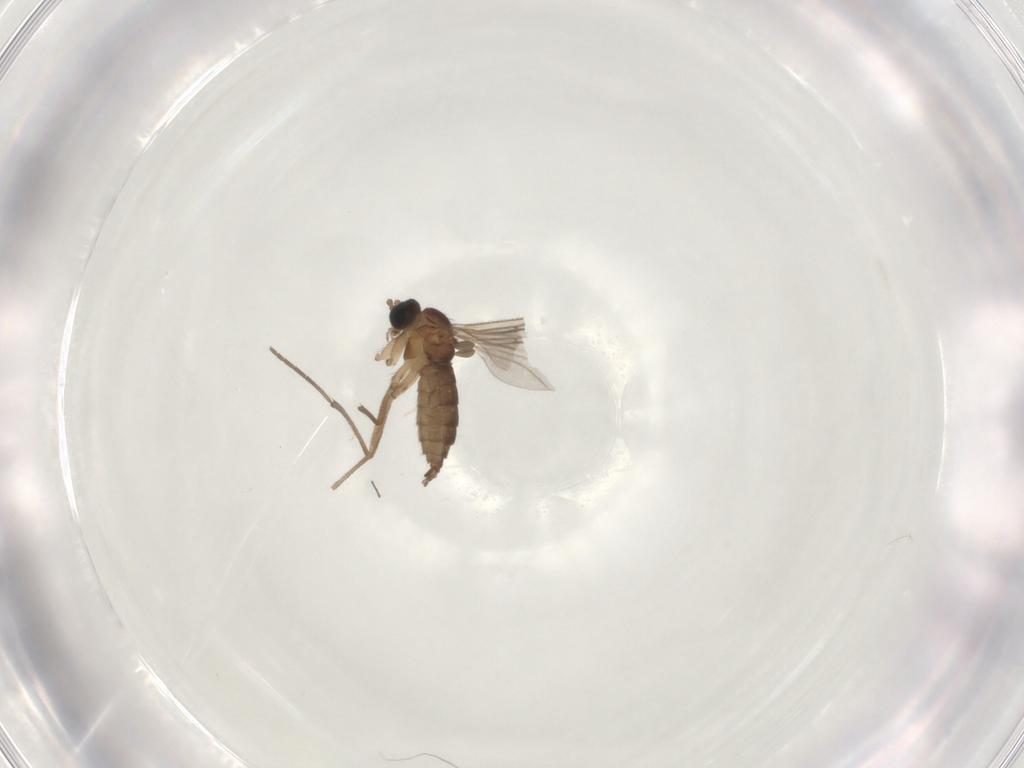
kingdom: Animalia
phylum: Arthropoda
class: Insecta
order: Diptera
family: Sciaridae
